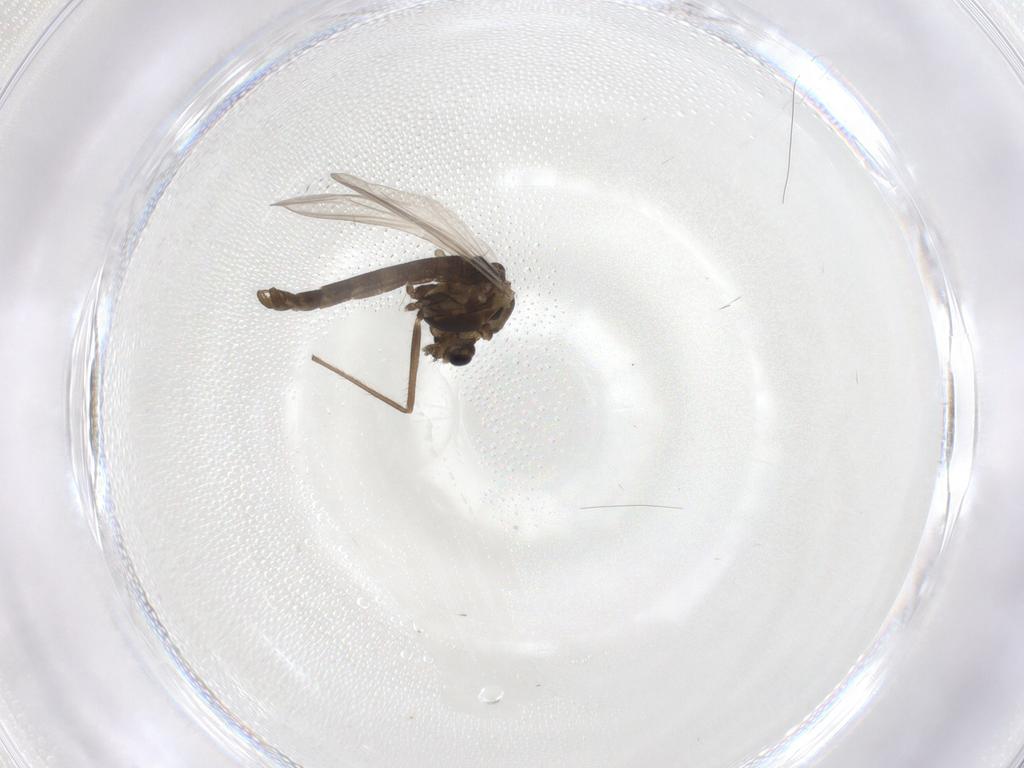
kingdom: Animalia
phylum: Arthropoda
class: Insecta
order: Diptera
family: Chironomidae
